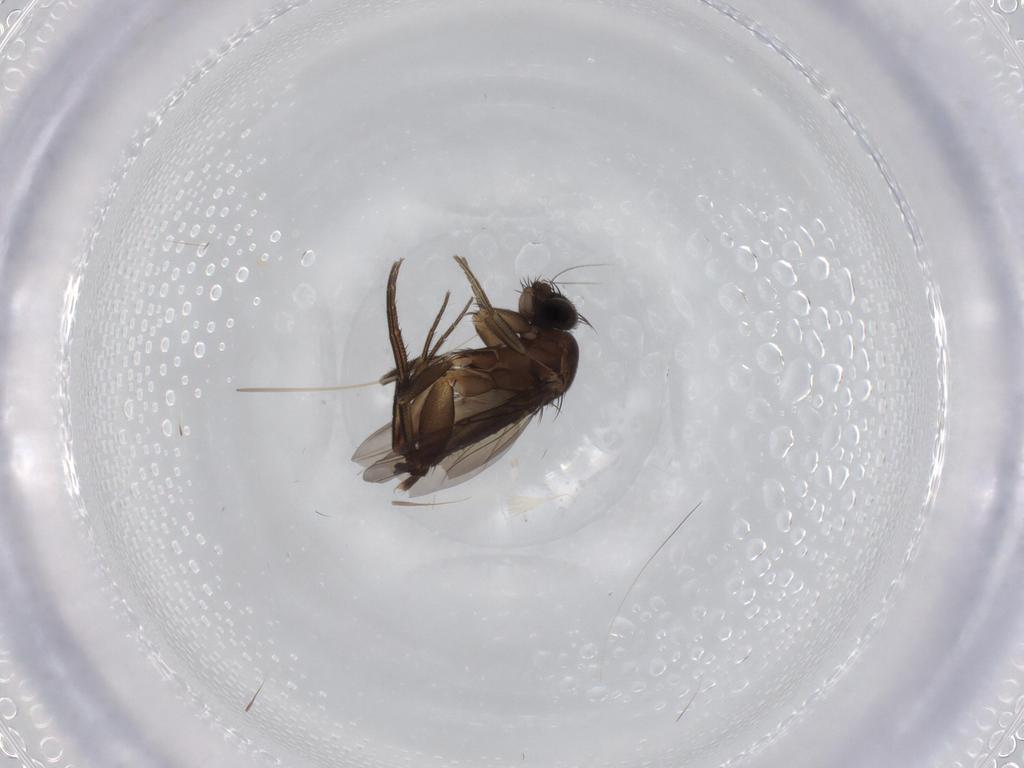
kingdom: Animalia
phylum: Arthropoda
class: Insecta
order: Diptera
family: Phoridae
